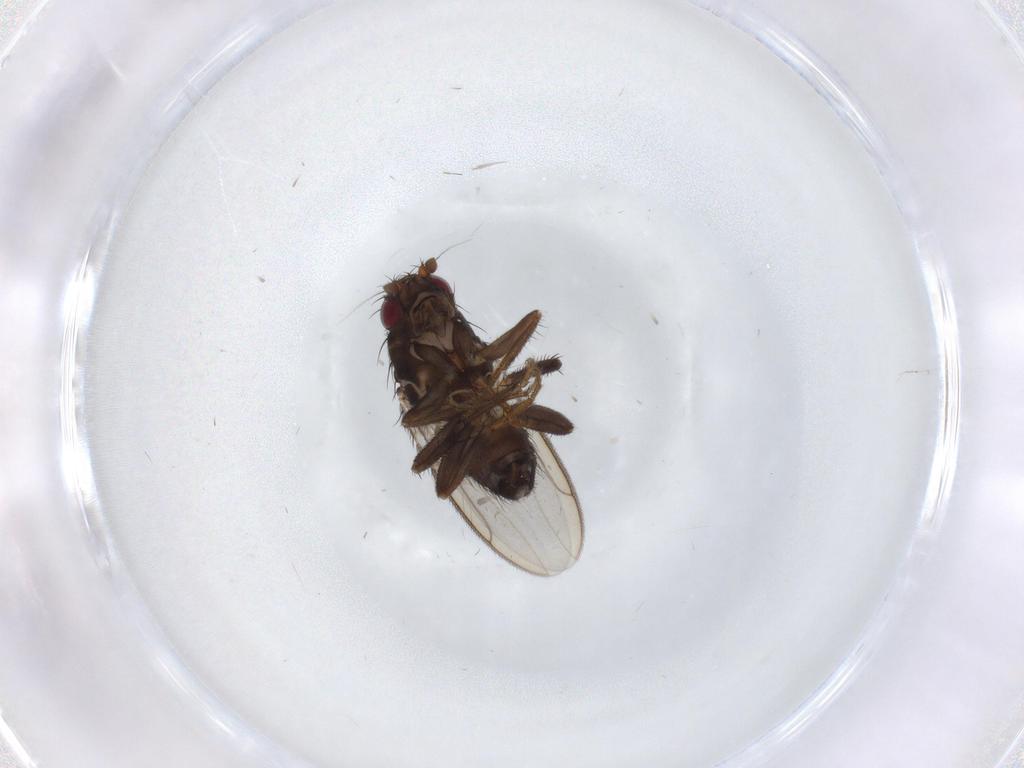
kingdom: Animalia
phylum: Arthropoda
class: Insecta
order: Diptera
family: Sphaeroceridae
